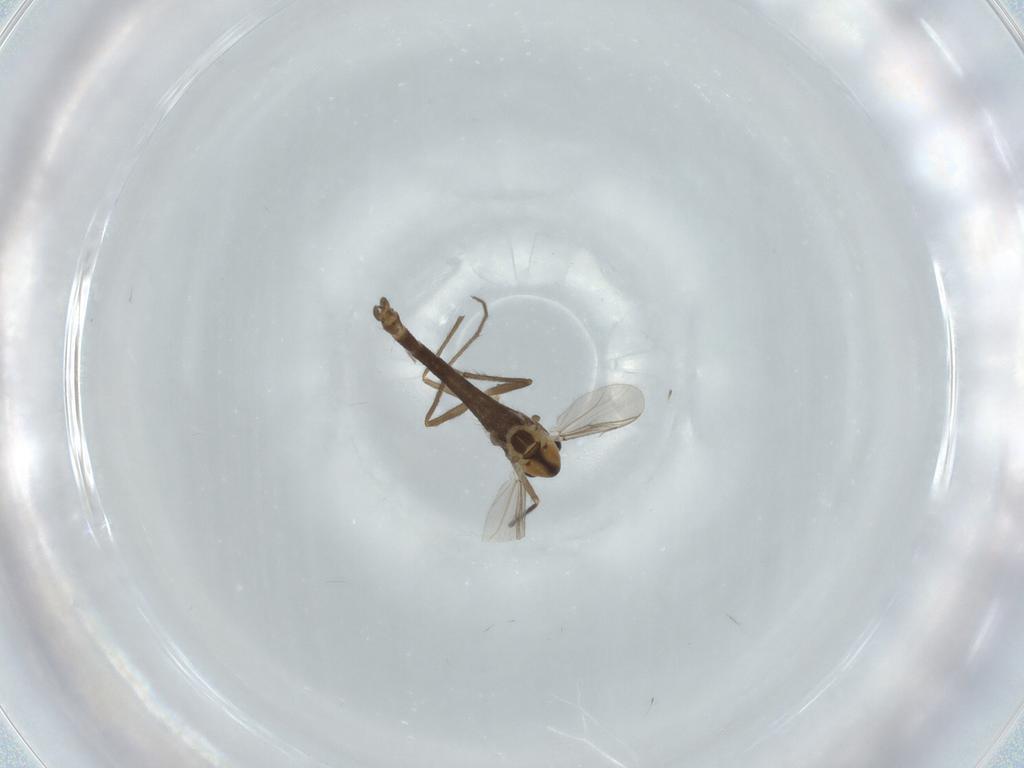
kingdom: Animalia
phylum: Arthropoda
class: Insecta
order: Diptera
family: Chironomidae
